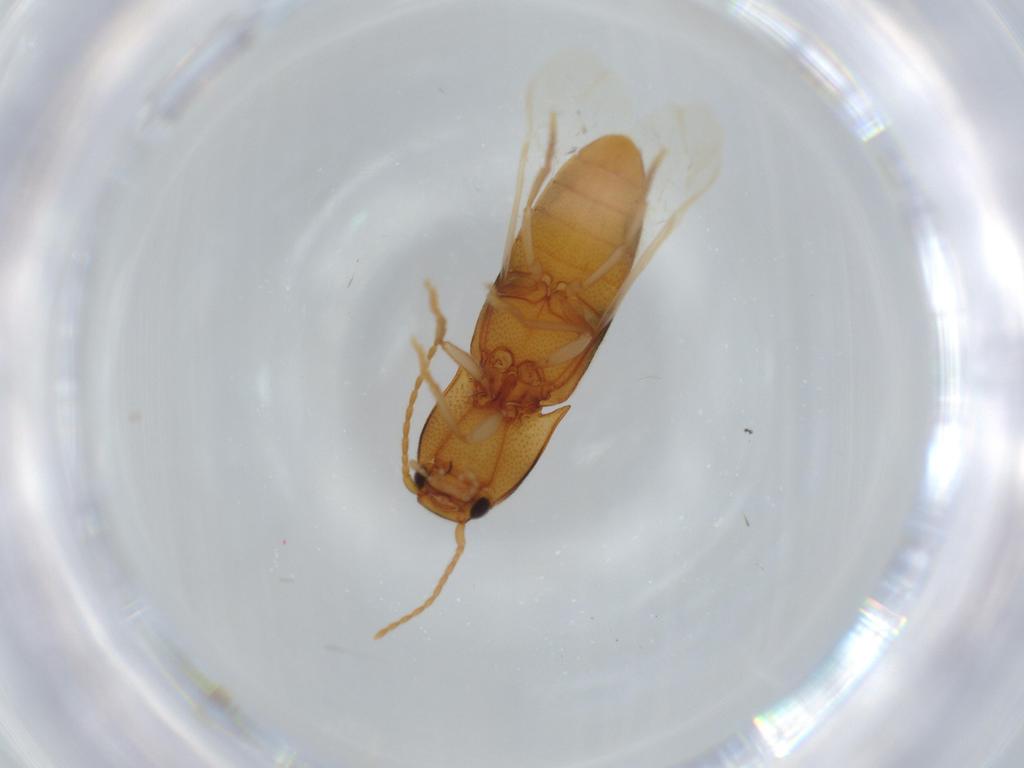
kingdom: Animalia
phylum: Arthropoda
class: Insecta
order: Coleoptera
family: Elateridae
